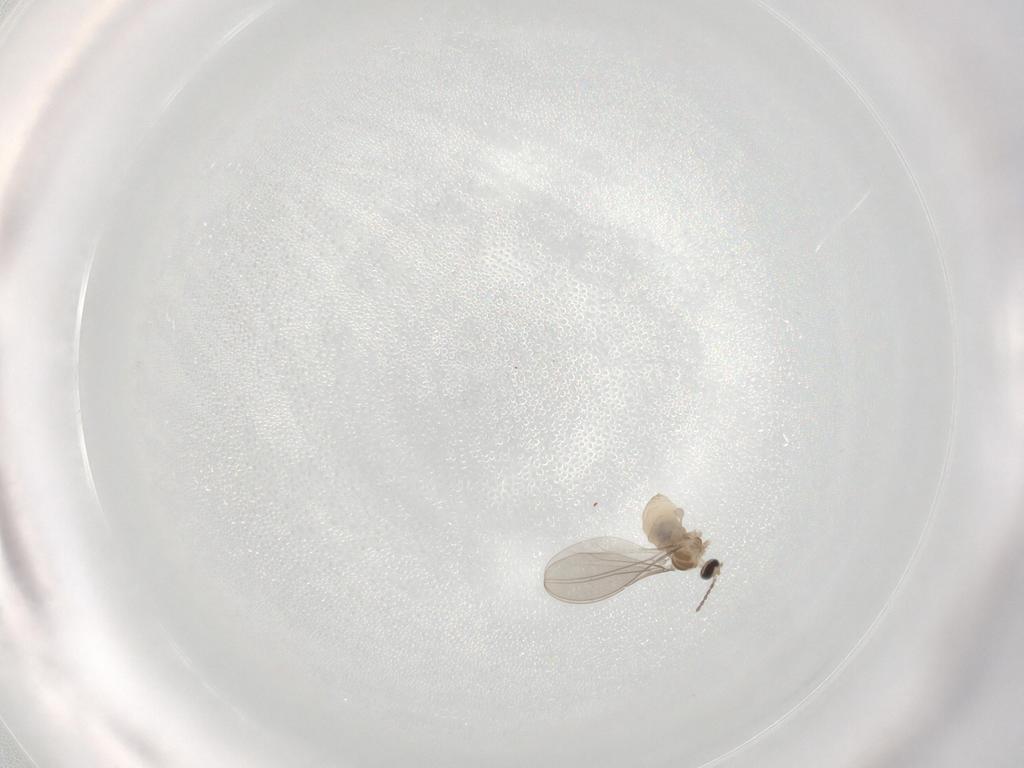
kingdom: Animalia
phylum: Arthropoda
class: Insecta
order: Diptera
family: Cecidomyiidae
